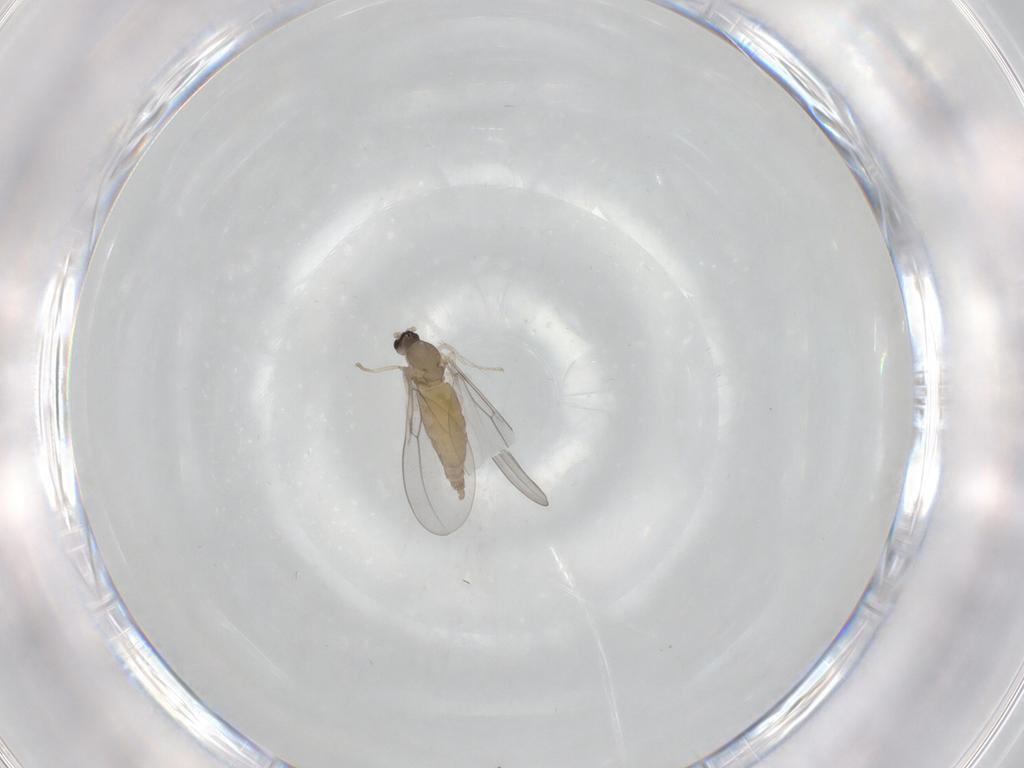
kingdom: Animalia
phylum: Arthropoda
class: Insecta
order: Diptera
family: Cecidomyiidae
